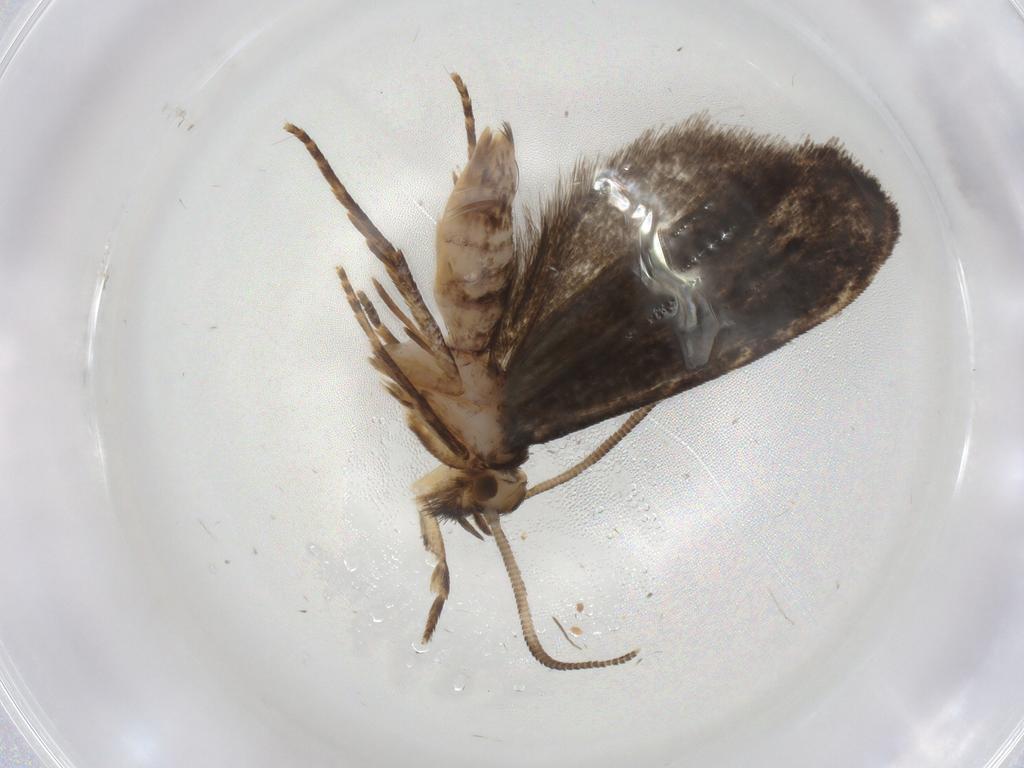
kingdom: Animalia
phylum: Arthropoda
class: Insecta
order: Lepidoptera
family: Dryadaulidae
